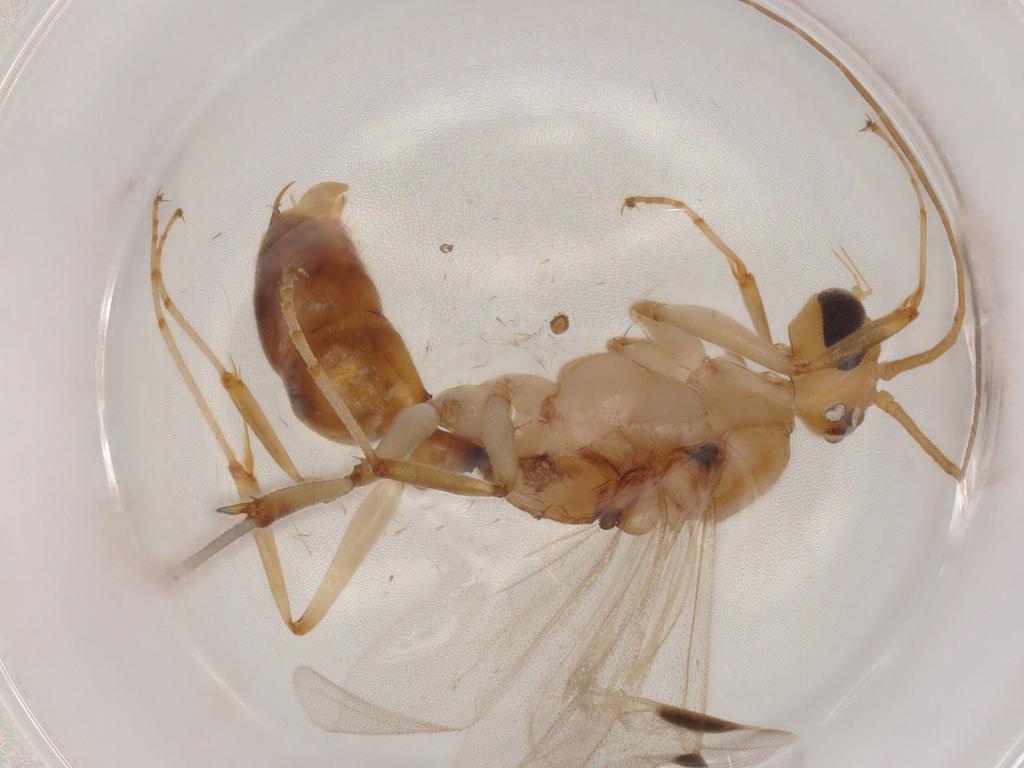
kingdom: Animalia
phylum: Arthropoda
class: Insecta
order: Hymenoptera
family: Formicidae
